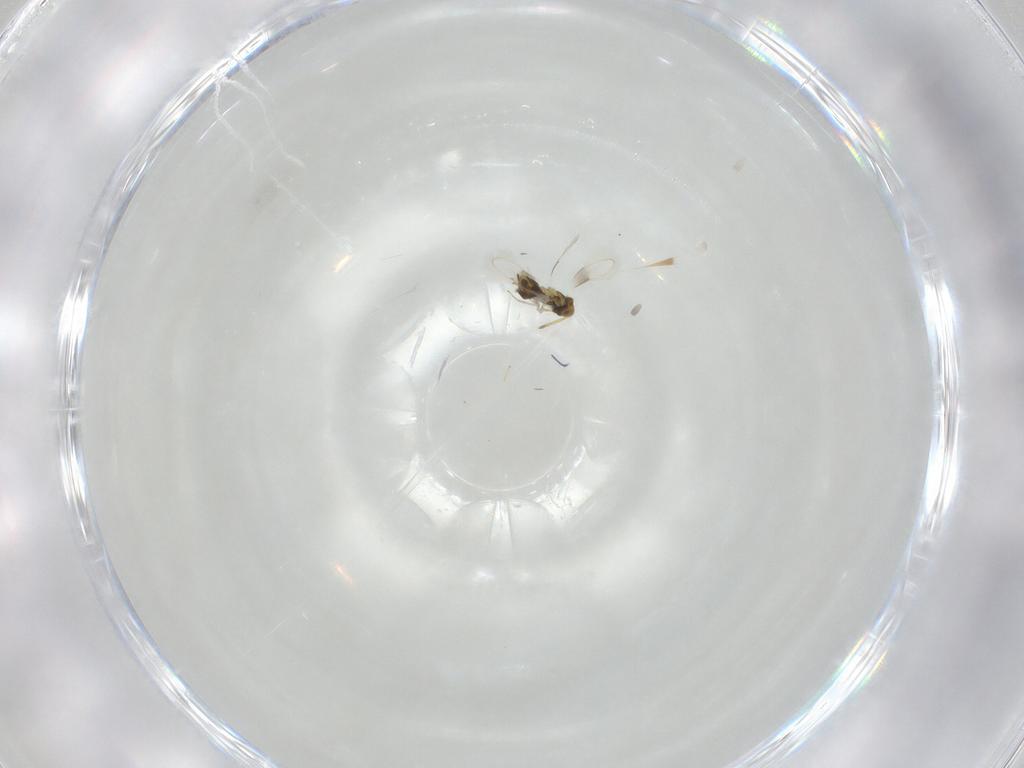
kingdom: Animalia
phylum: Arthropoda
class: Insecta
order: Hymenoptera
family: Aphelinidae
